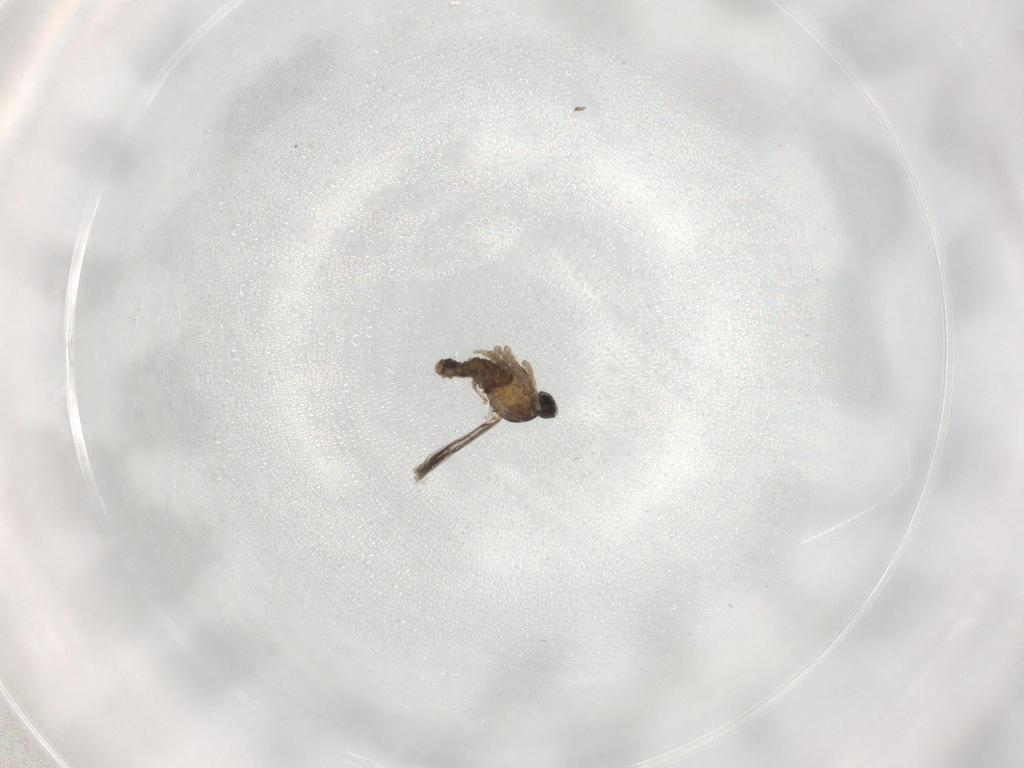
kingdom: Animalia
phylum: Arthropoda
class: Insecta
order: Diptera
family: Cecidomyiidae
